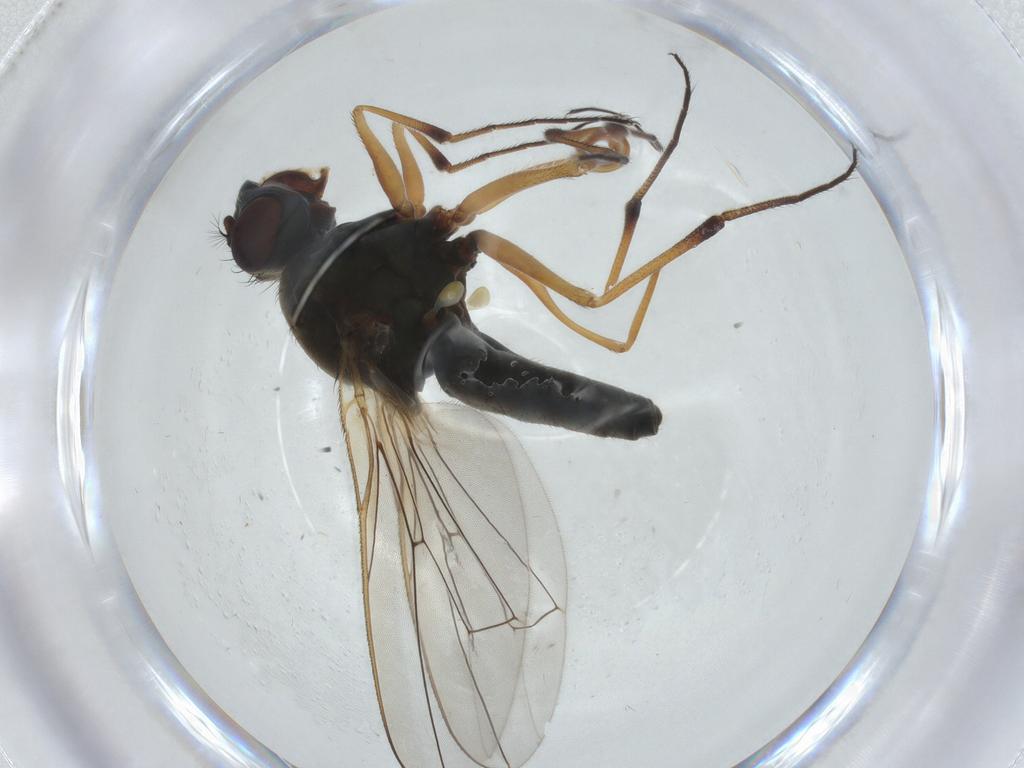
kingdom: Animalia
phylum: Arthropoda
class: Insecta
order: Diptera
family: Ephydridae
